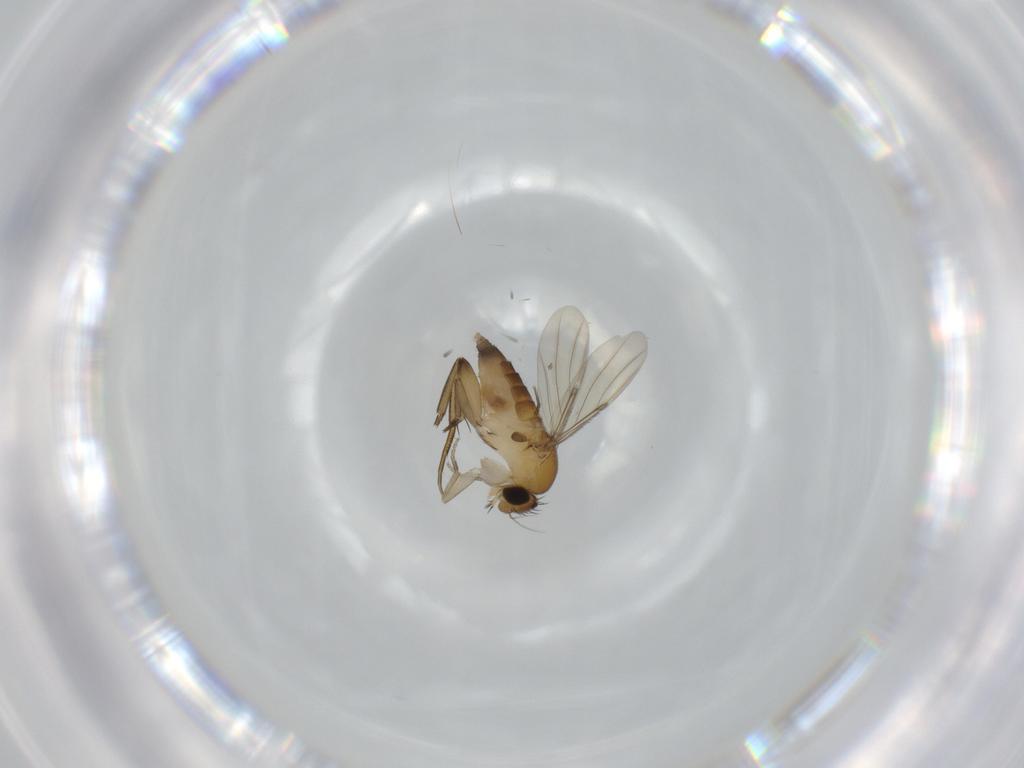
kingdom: Animalia
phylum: Arthropoda
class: Insecta
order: Diptera
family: Phoridae
